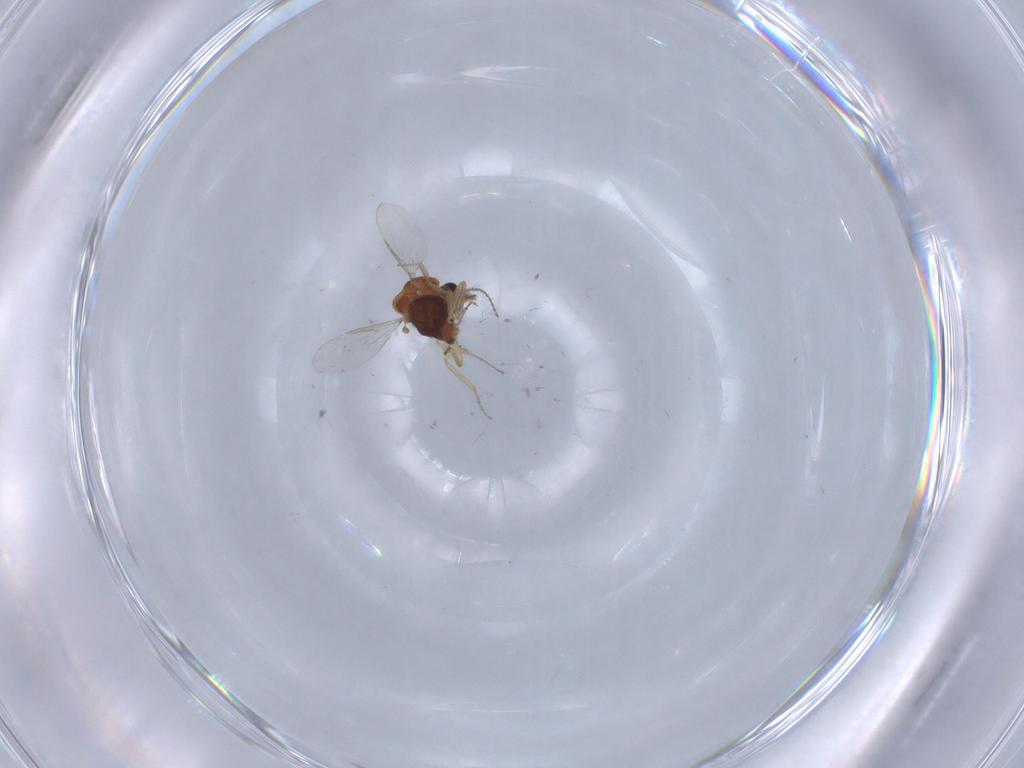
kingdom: Animalia
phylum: Arthropoda
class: Insecta
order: Diptera
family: Ceratopogonidae
